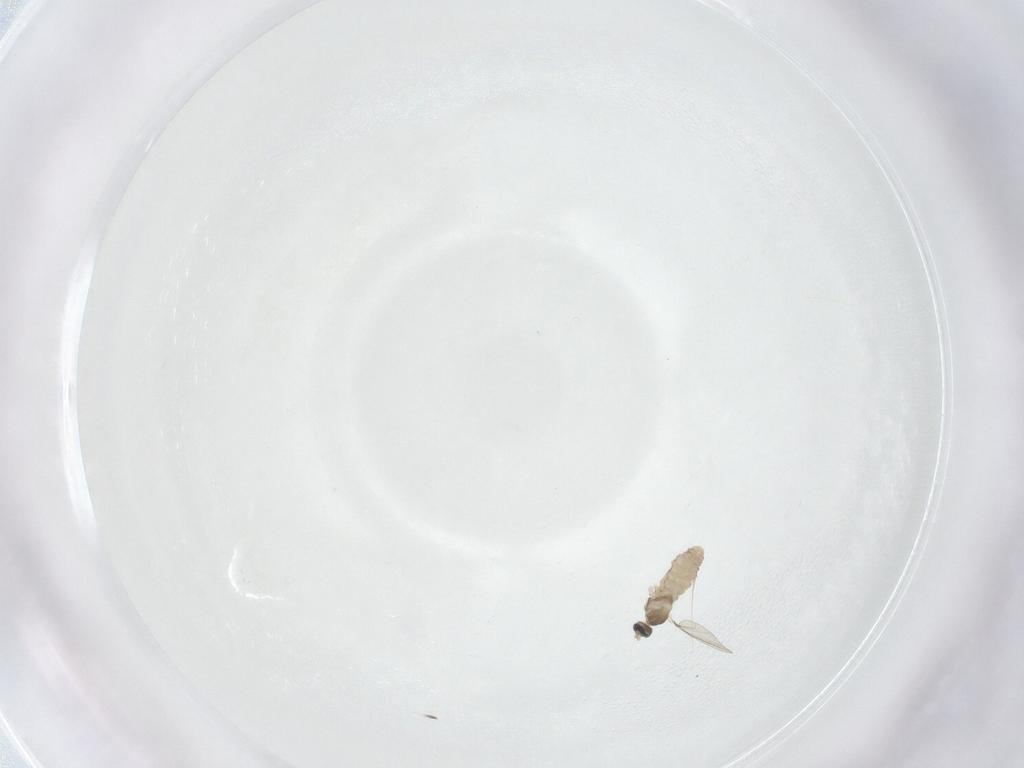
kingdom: Animalia
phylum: Arthropoda
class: Insecta
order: Diptera
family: Cecidomyiidae
